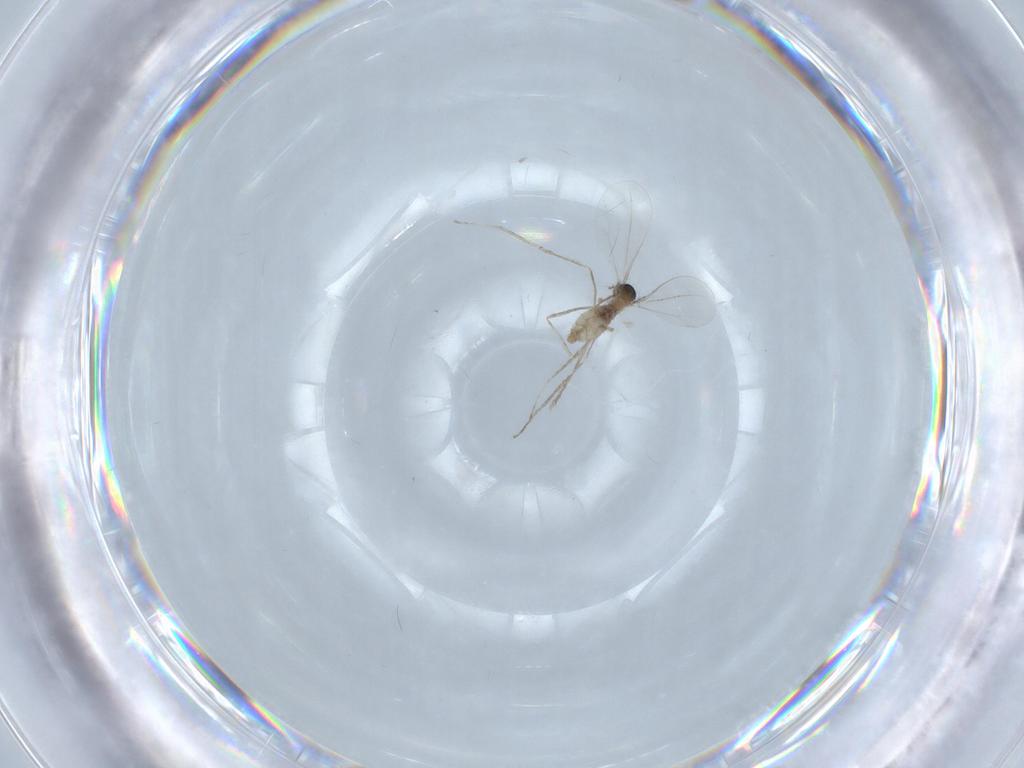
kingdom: Animalia
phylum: Arthropoda
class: Insecta
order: Diptera
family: Cecidomyiidae
